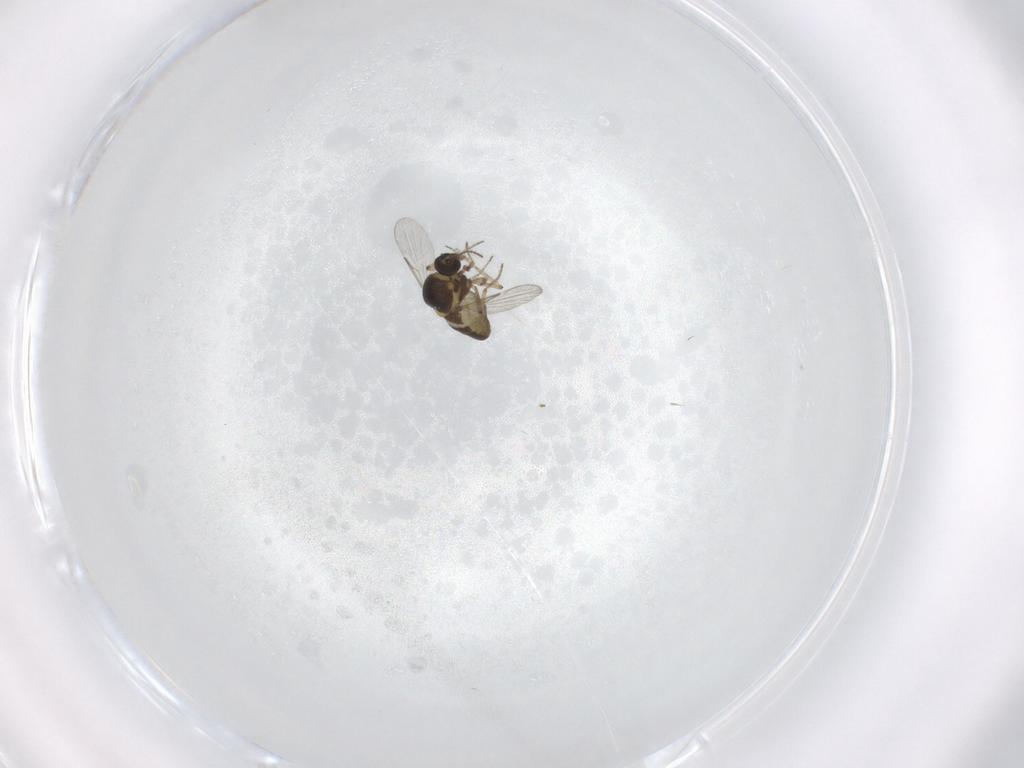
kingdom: Animalia
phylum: Arthropoda
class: Insecta
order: Diptera
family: Ceratopogonidae
